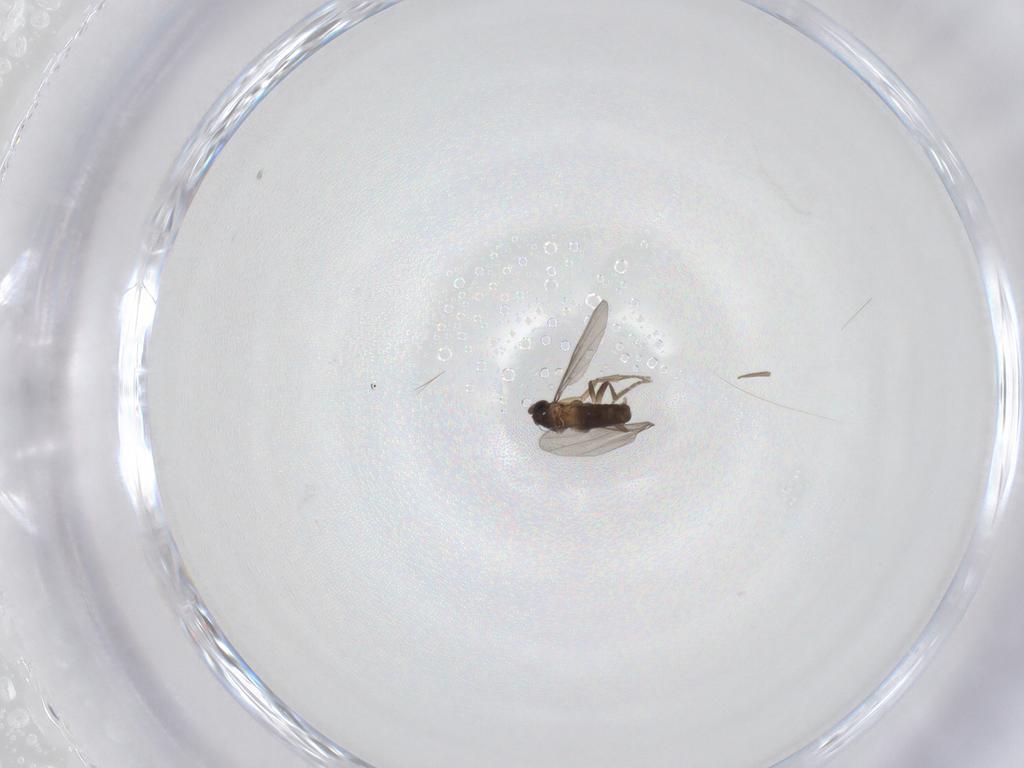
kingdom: Animalia
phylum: Arthropoda
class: Insecta
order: Diptera
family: Phoridae
